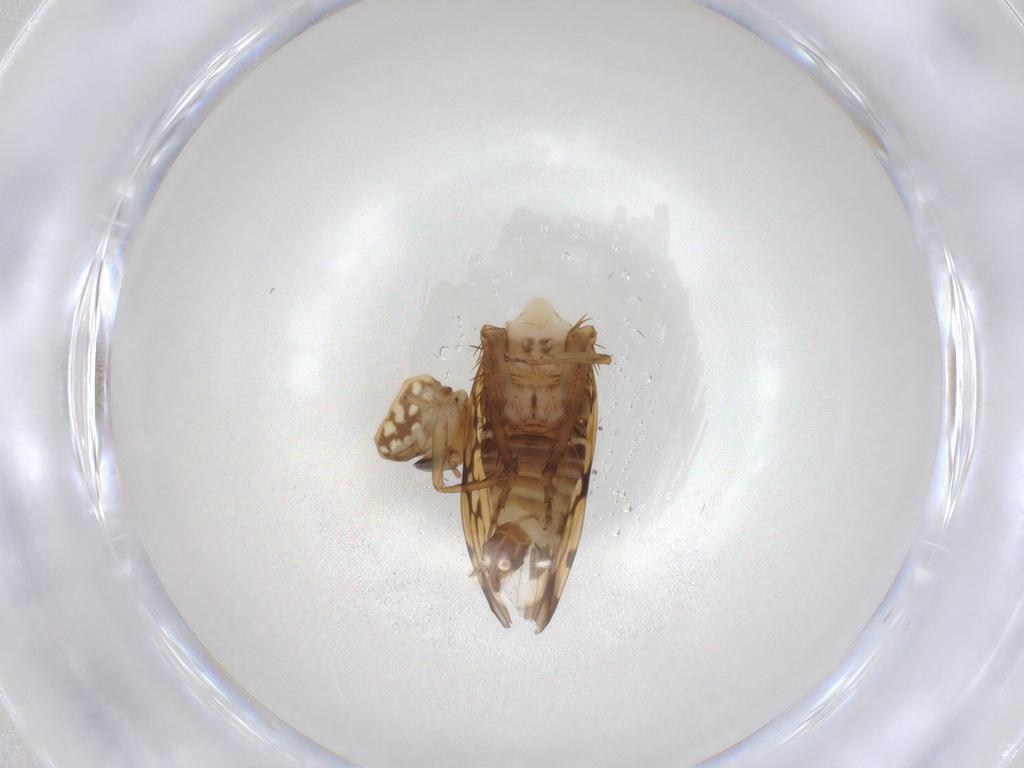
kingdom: Animalia
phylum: Arthropoda
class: Insecta
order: Hemiptera
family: Cicadellidae
